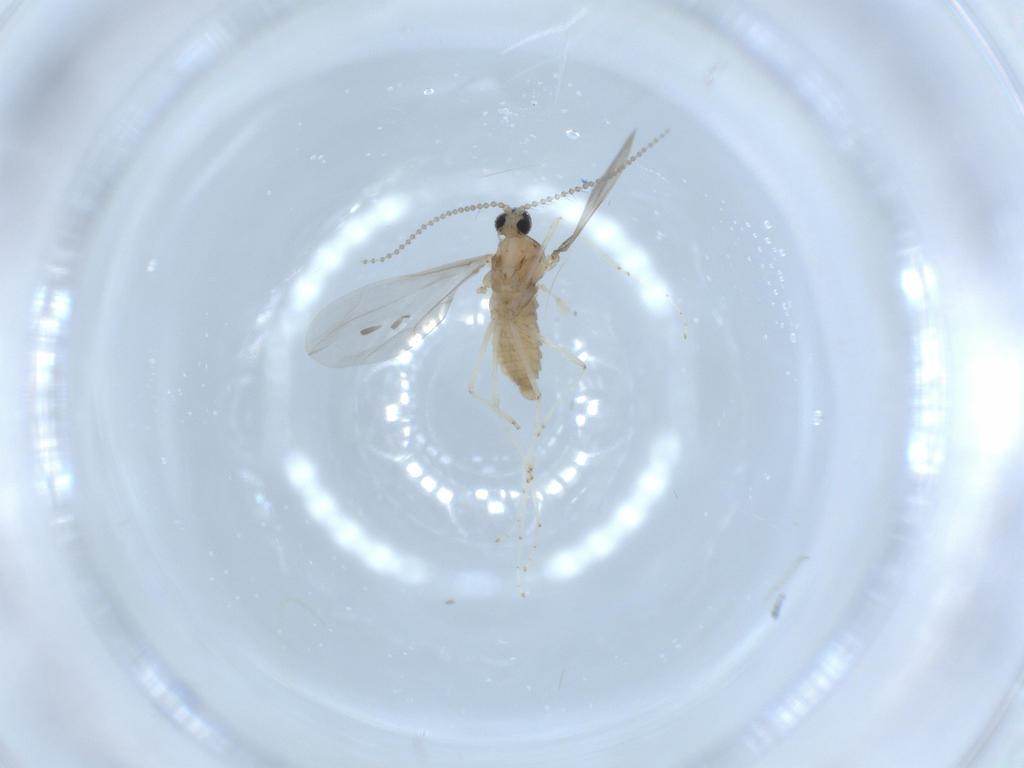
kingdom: Animalia
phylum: Arthropoda
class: Insecta
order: Diptera
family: Cecidomyiidae
